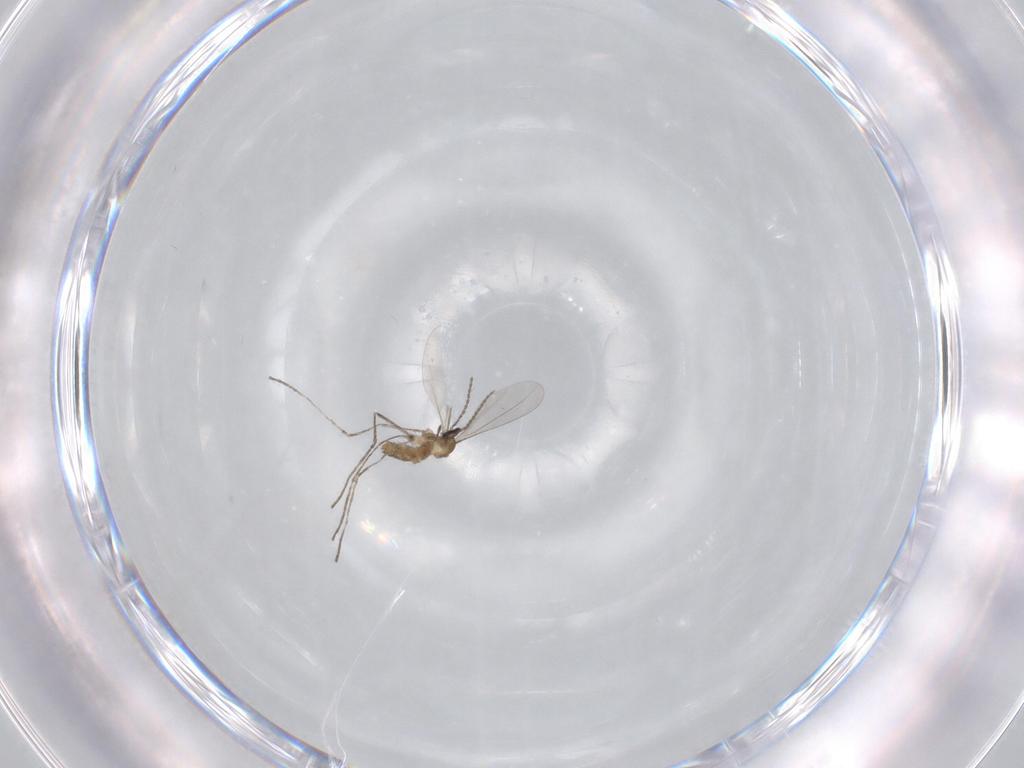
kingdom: Animalia
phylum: Arthropoda
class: Insecta
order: Diptera
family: Cecidomyiidae
